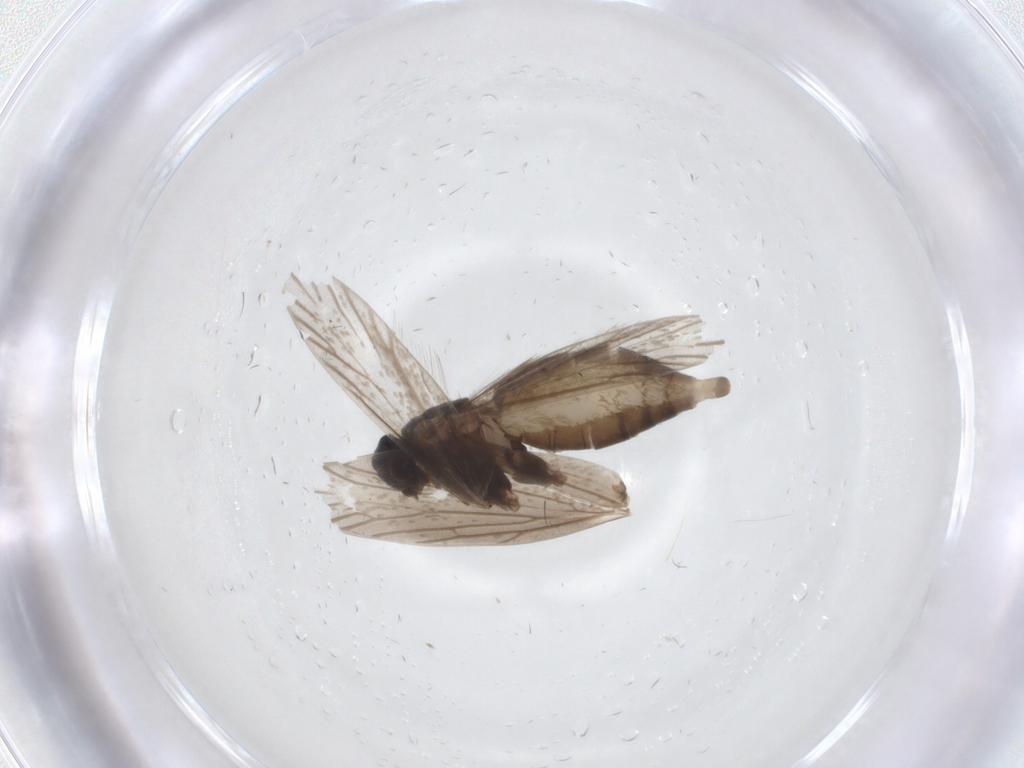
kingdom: Animalia
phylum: Arthropoda
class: Insecta
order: Lepidoptera
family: Micropterigidae
